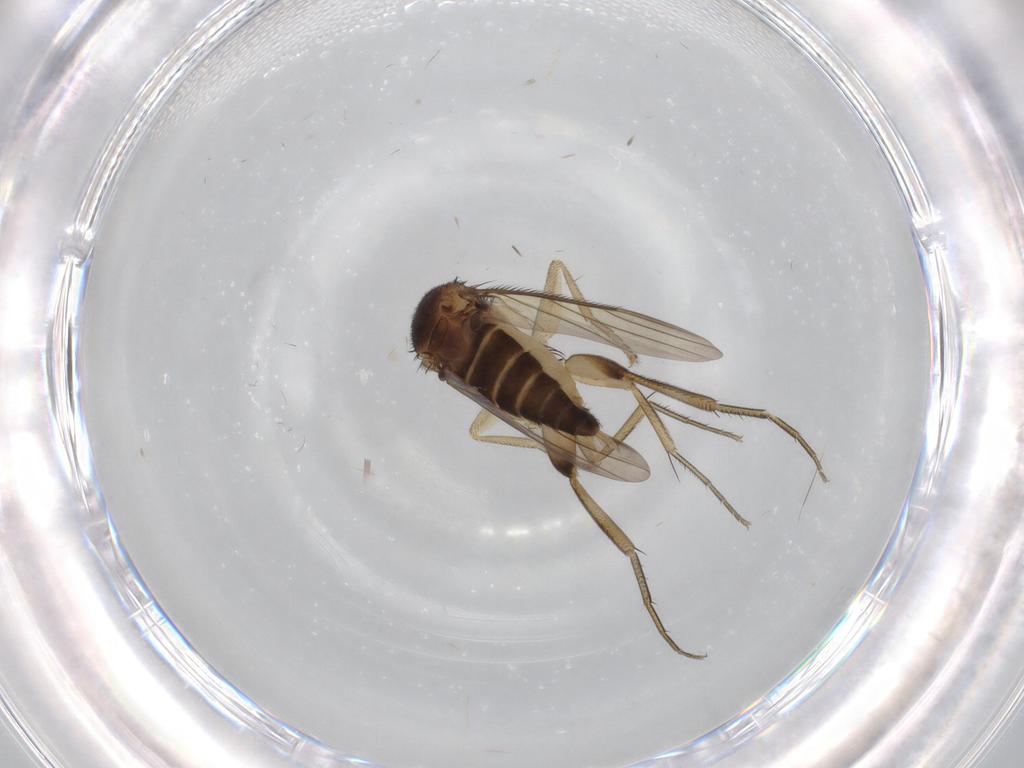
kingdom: Animalia
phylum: Arthropoda
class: Insecta
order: Diptera
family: Phoridae
